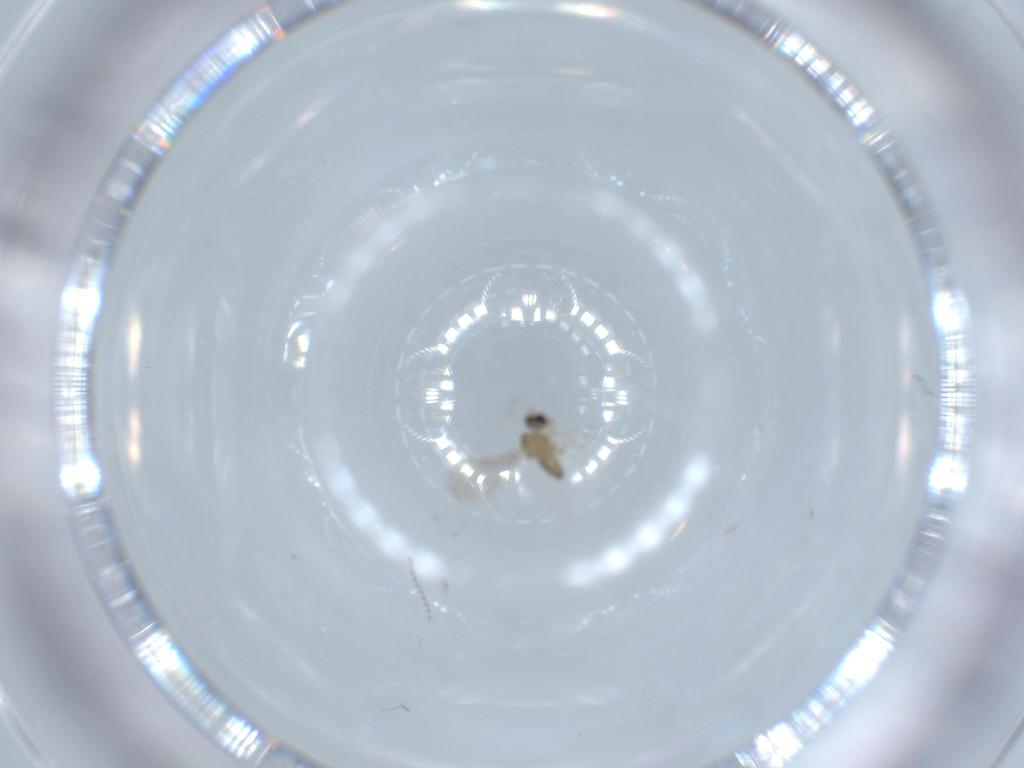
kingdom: Animalia
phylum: Arthropoda
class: Insecta
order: Diptera
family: Cecidomyiidae
